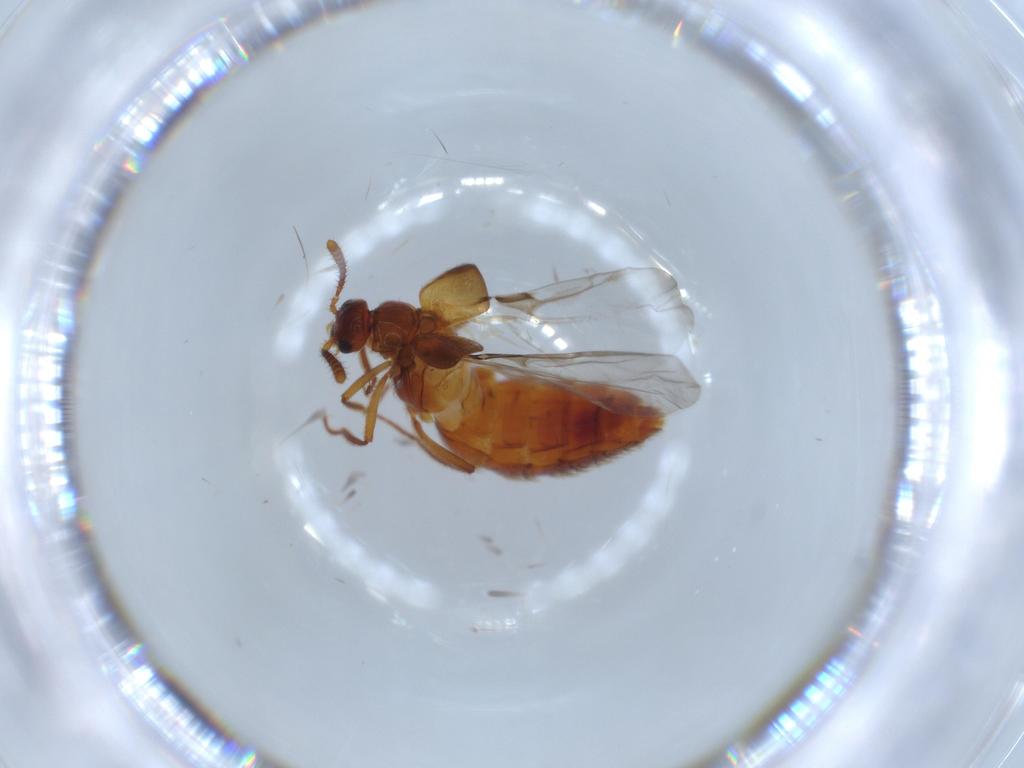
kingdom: Animalia
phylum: Arthropoda
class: Insecta
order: Coleoptera
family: Staphylinidae
